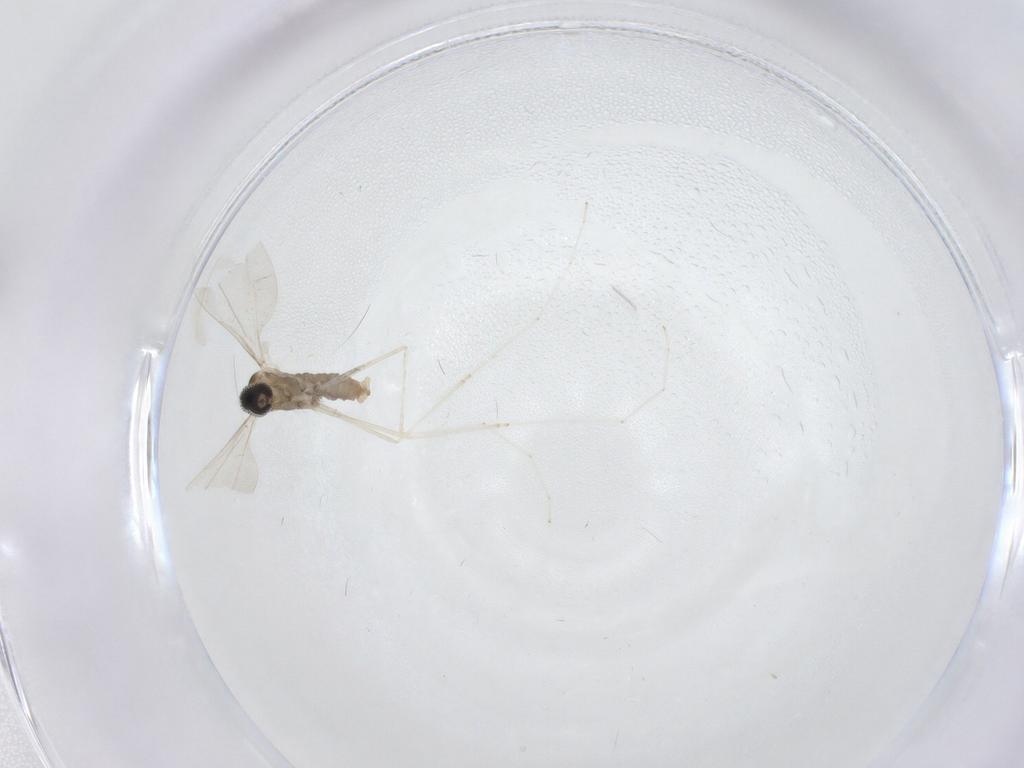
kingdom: Animalia
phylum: Arthropoda
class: Insecta
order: Diptera
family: Cecidomyiidae
